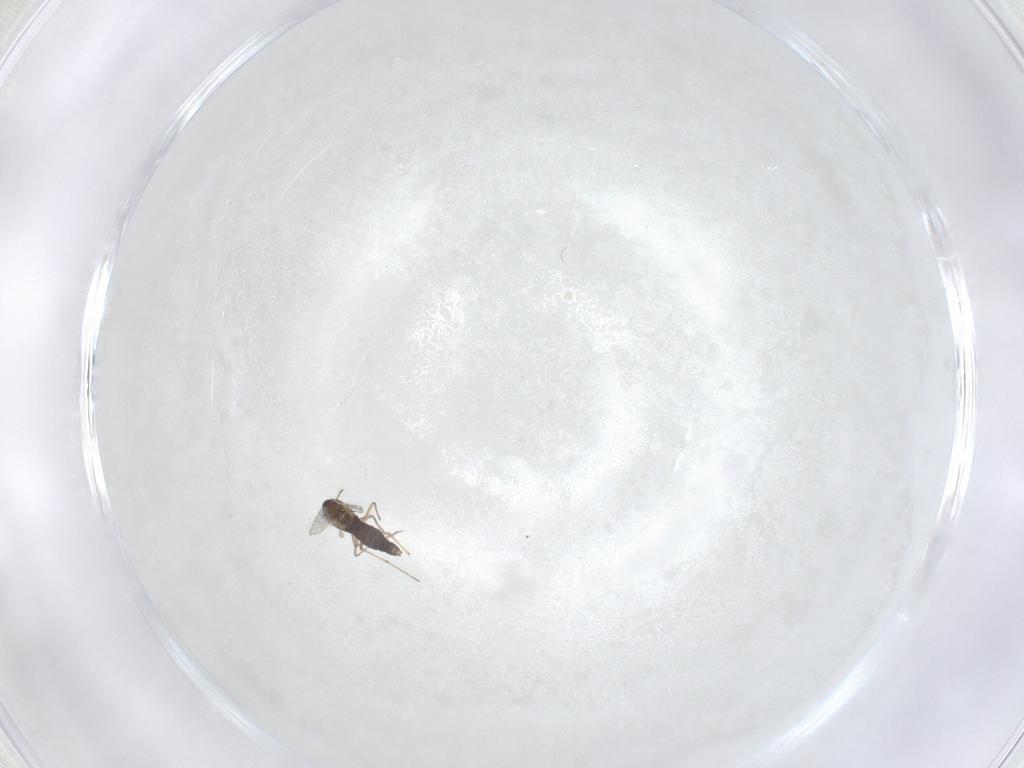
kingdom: Animalia
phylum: Arthropoda
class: Insecta
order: Diptera
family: Chironomidae
